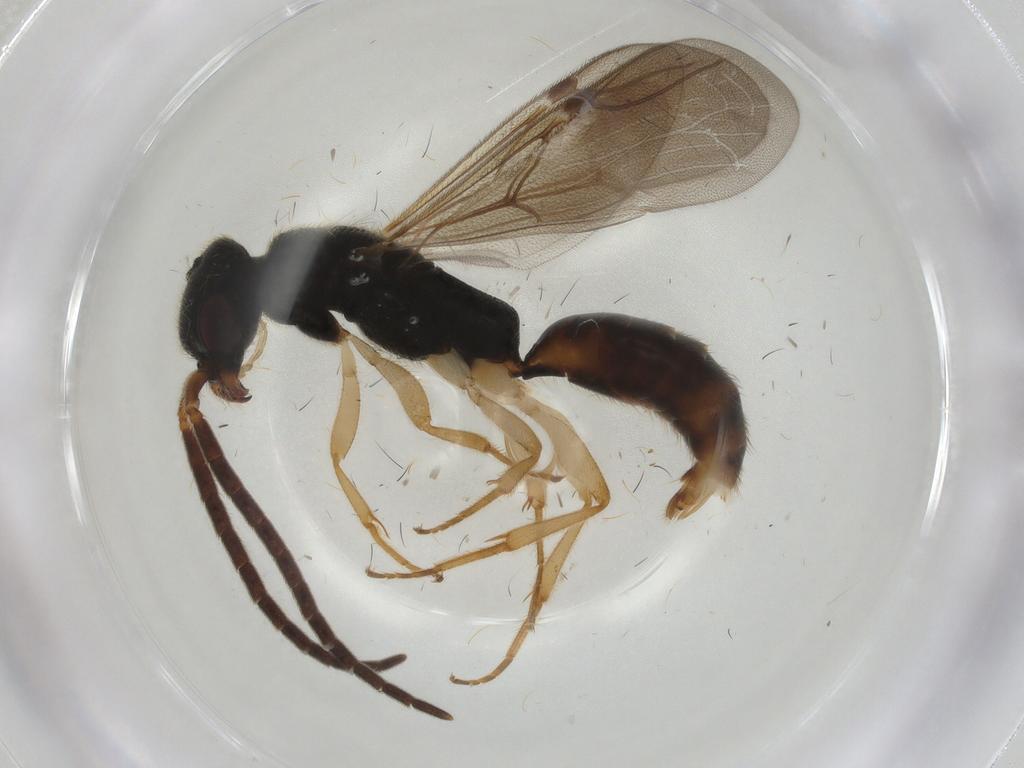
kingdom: Animalia
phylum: Arthropoda
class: Insecta
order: Hymenoptera
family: Bethylidae
